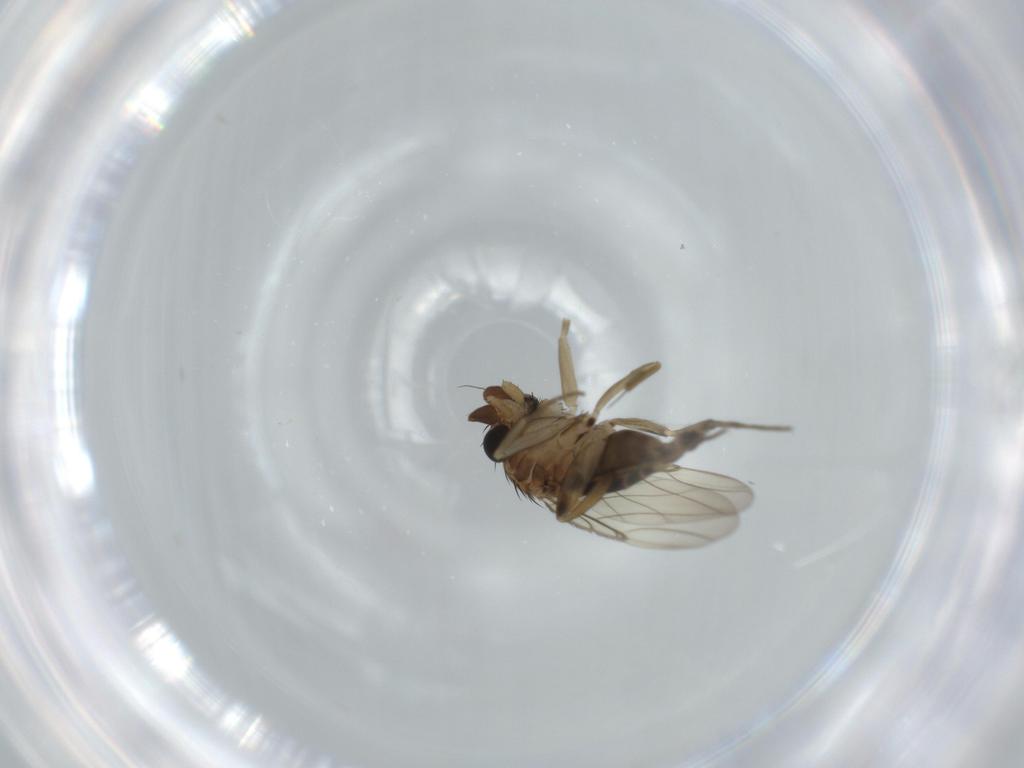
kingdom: Animalia
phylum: Arthropoda
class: Insecta
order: Diptera
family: Phoridae
